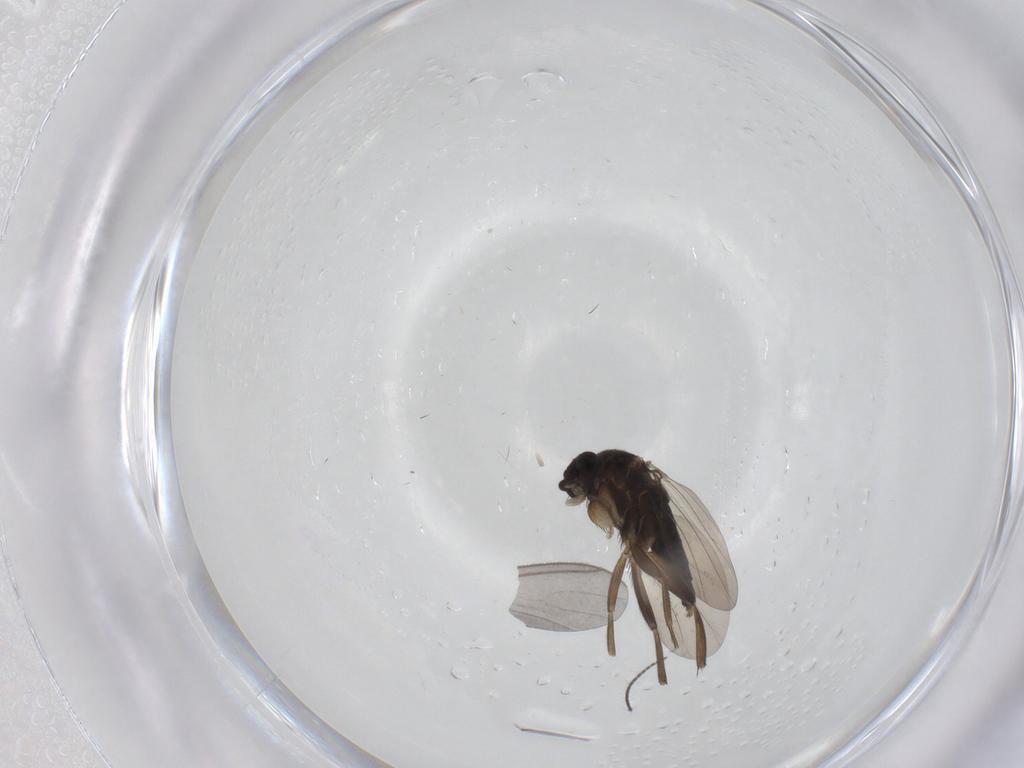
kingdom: Animalia
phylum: Arthropoda
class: Insecta
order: Diptera
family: Phoridae
